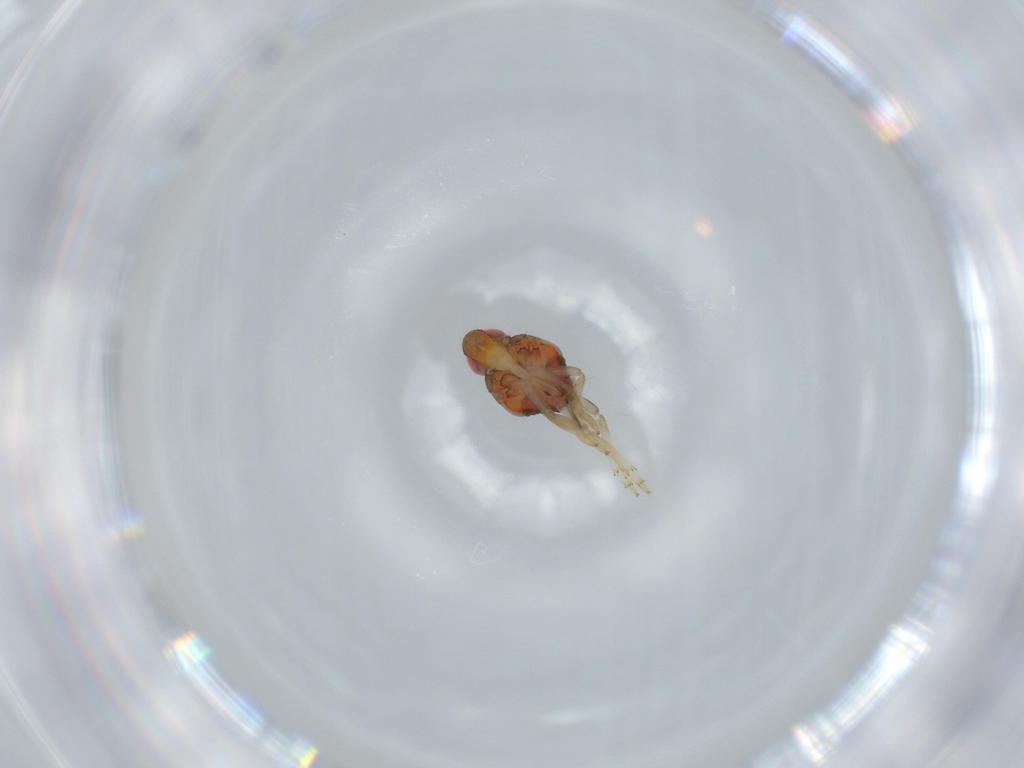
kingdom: Animalia
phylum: Arthropoda
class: Insecta
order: Hemiptera
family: Issidae
